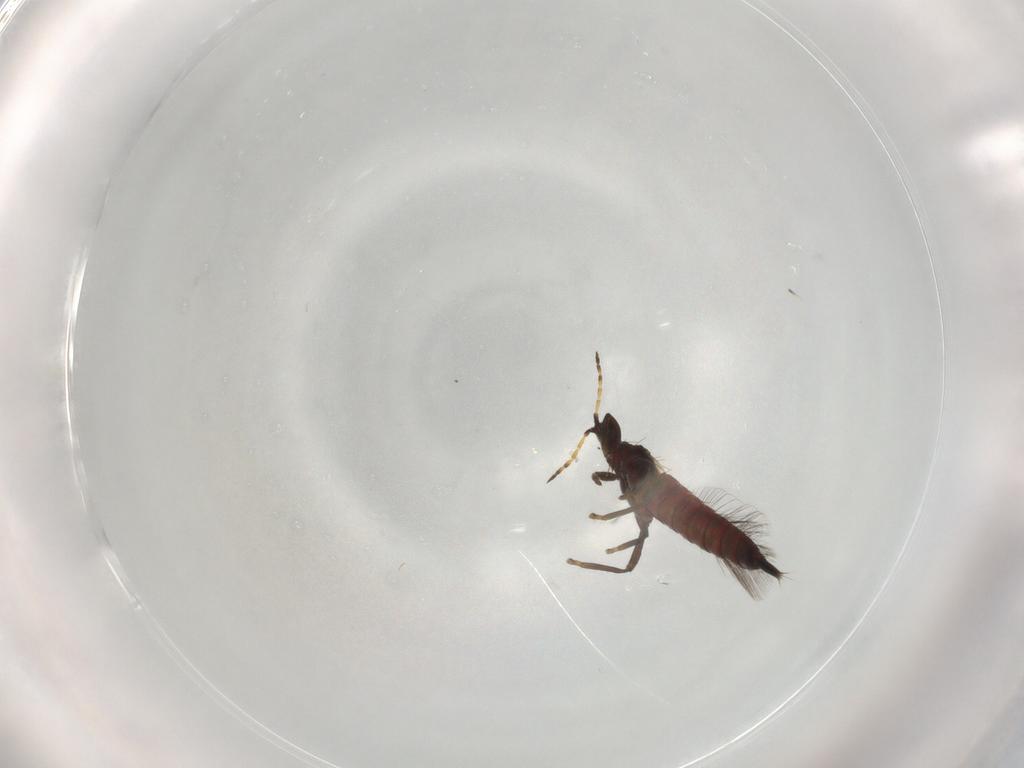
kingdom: Animalia
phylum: Arthropoda
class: Insecta
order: Thysanoptera
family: Phlaeothripidae
